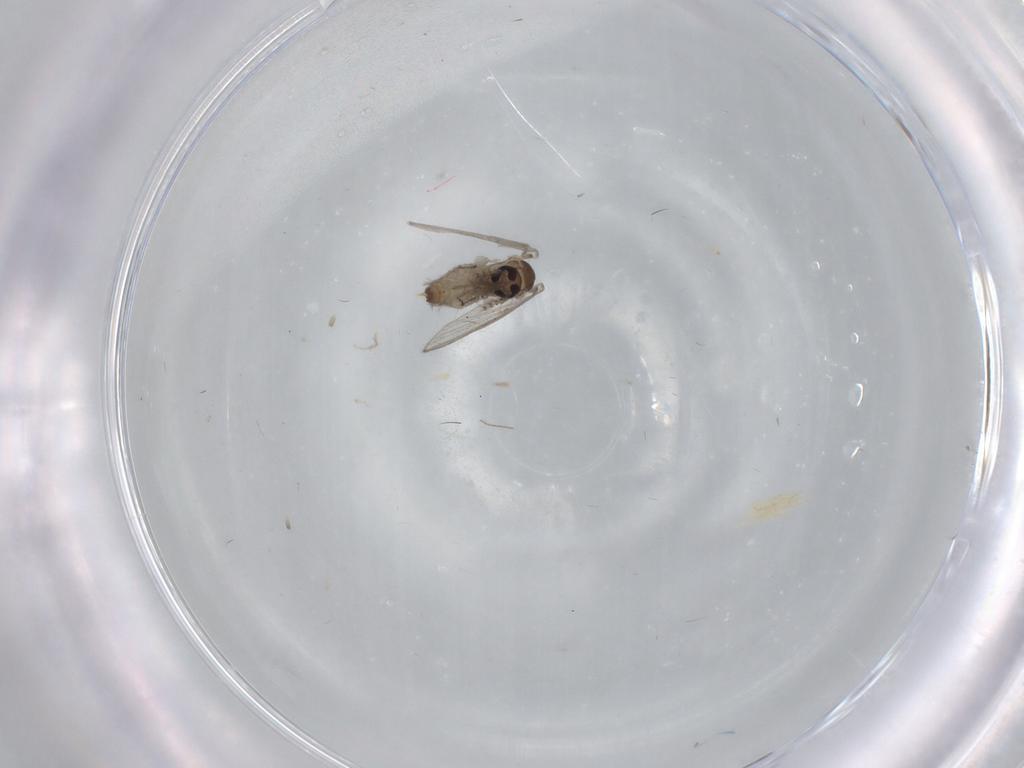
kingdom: Animalia
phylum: Arthropoda
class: Insecta
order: Diptera
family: Psychodidae
